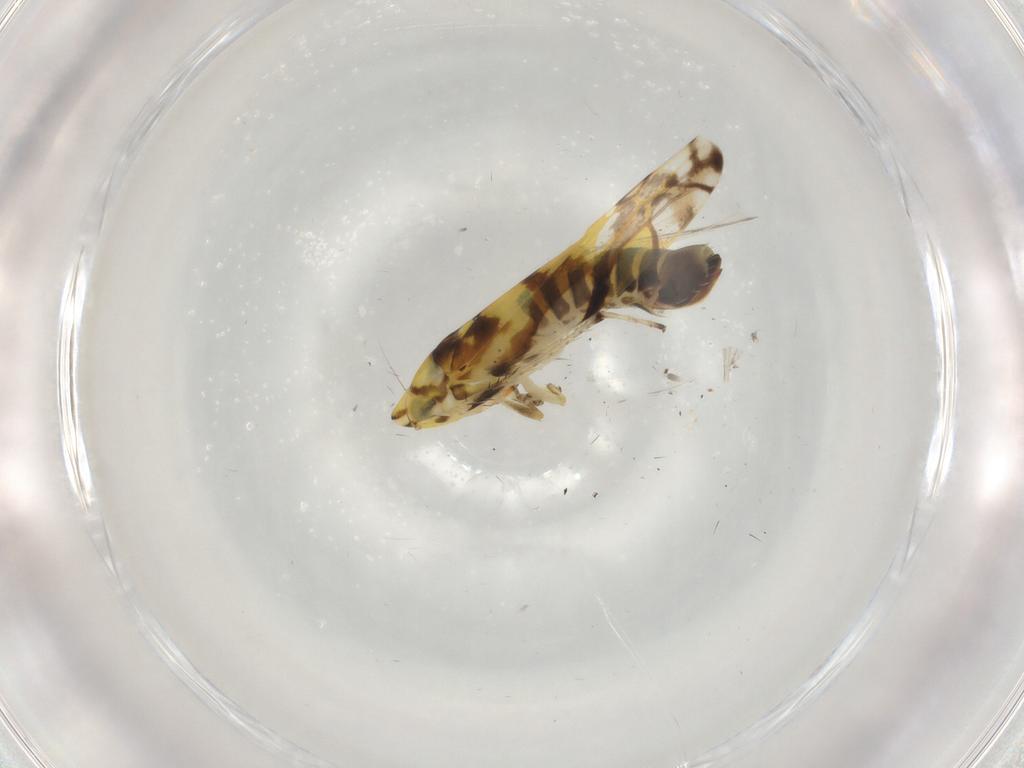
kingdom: Animalia
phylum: Arthropoda
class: Insecta
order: Hemiptera
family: Cicadellidae
